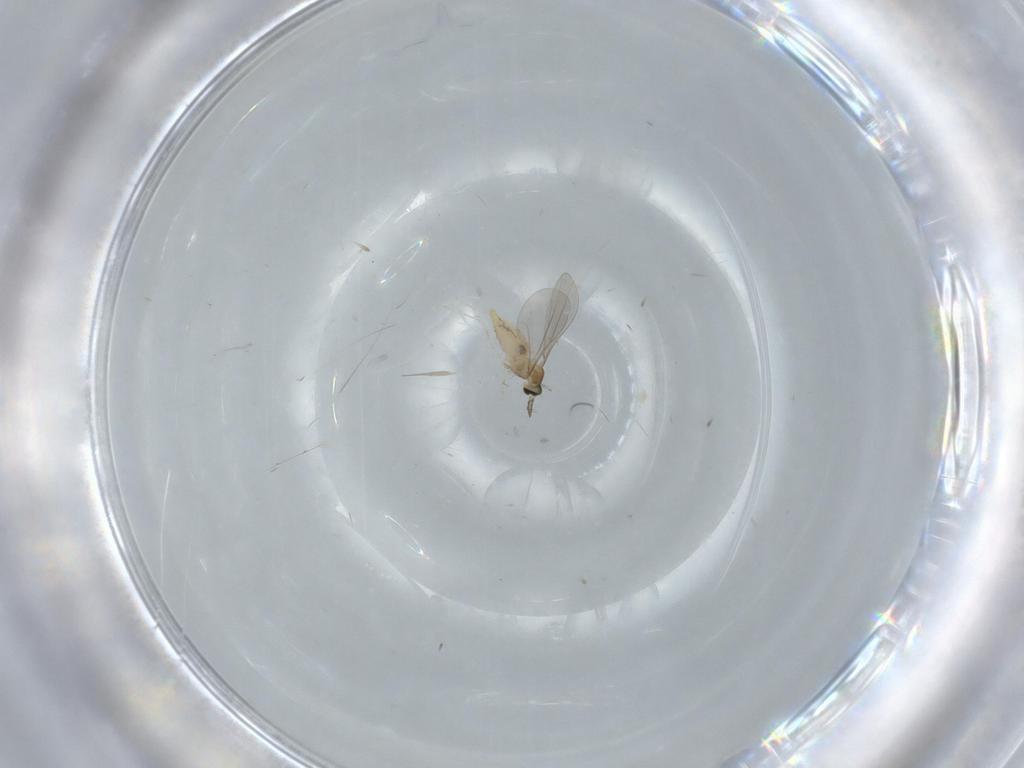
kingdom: Animalia
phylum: Arthropoda
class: Insecta
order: Diptera
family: Cecidomyiidae
